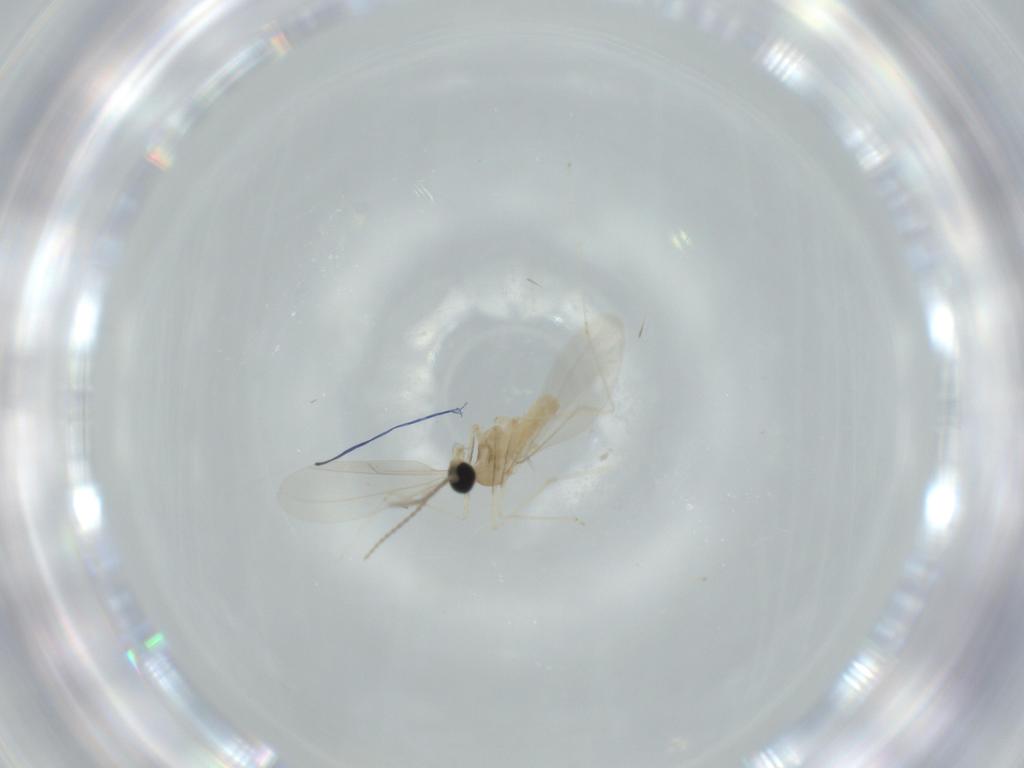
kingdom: Animalia
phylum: Arthropoda
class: Insecta
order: Diptera
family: Cecidomyiidae
